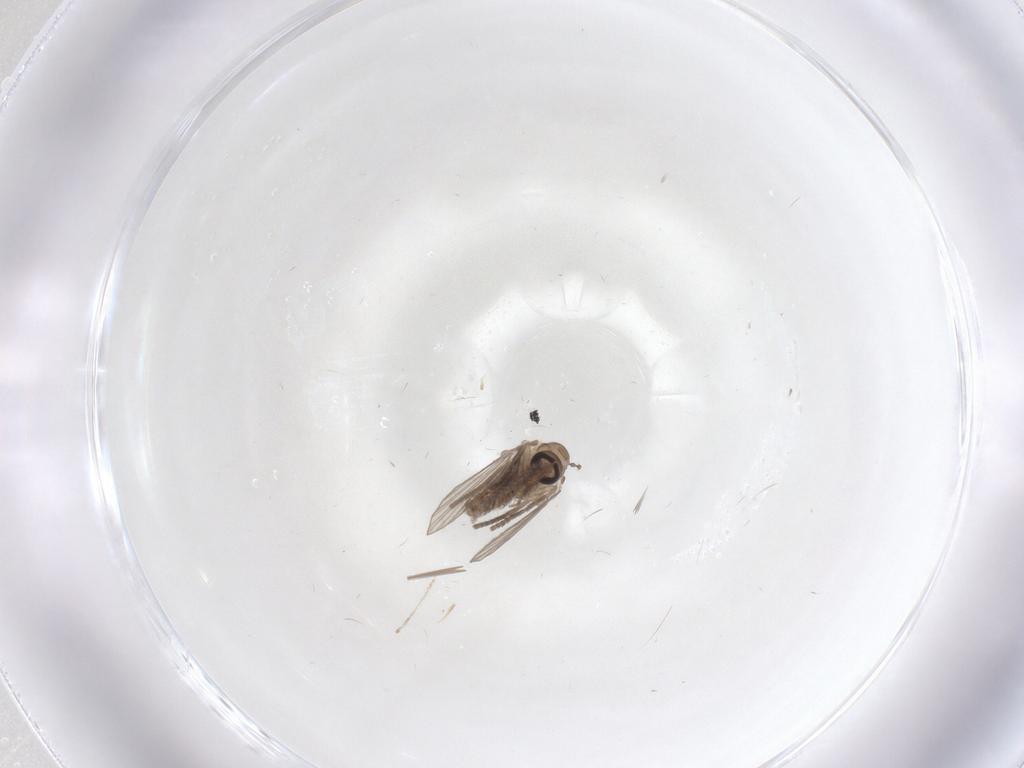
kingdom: Animalia
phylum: Arthropoda
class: Insecta
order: Diptera
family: Psychodidae
